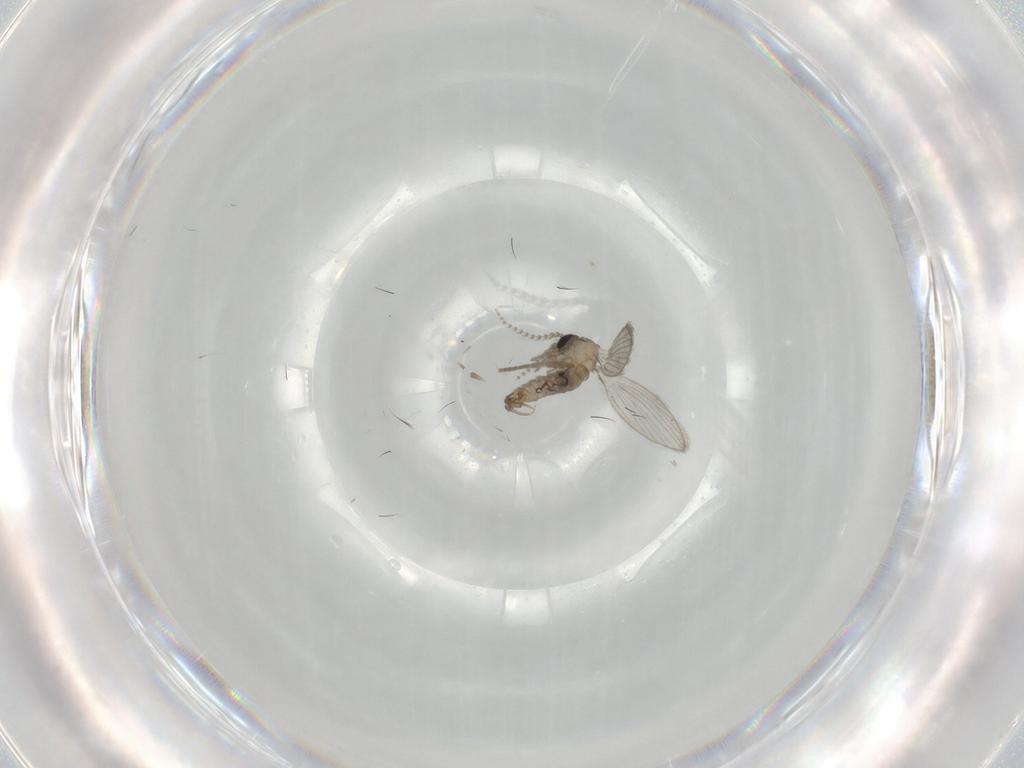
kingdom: Animalia
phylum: Arthropoda
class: Insecta
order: Diptera
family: Psychodidae
